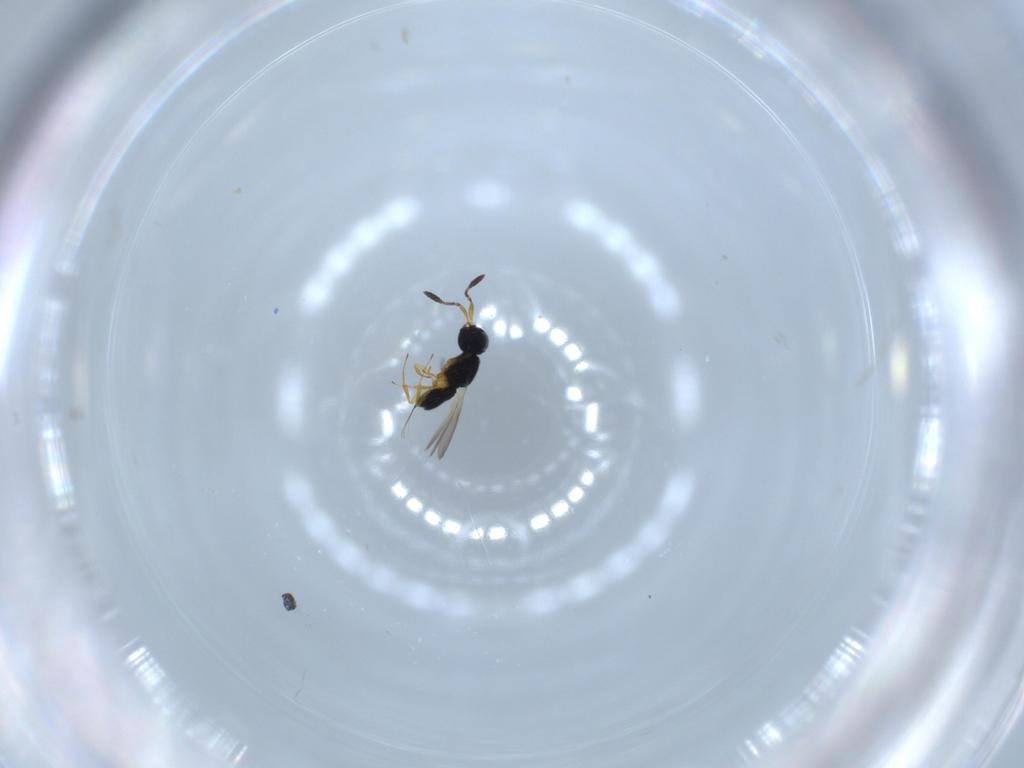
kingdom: Animalia
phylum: Arthropoda
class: Insecta
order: Hymenoptera
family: Scelionidae
